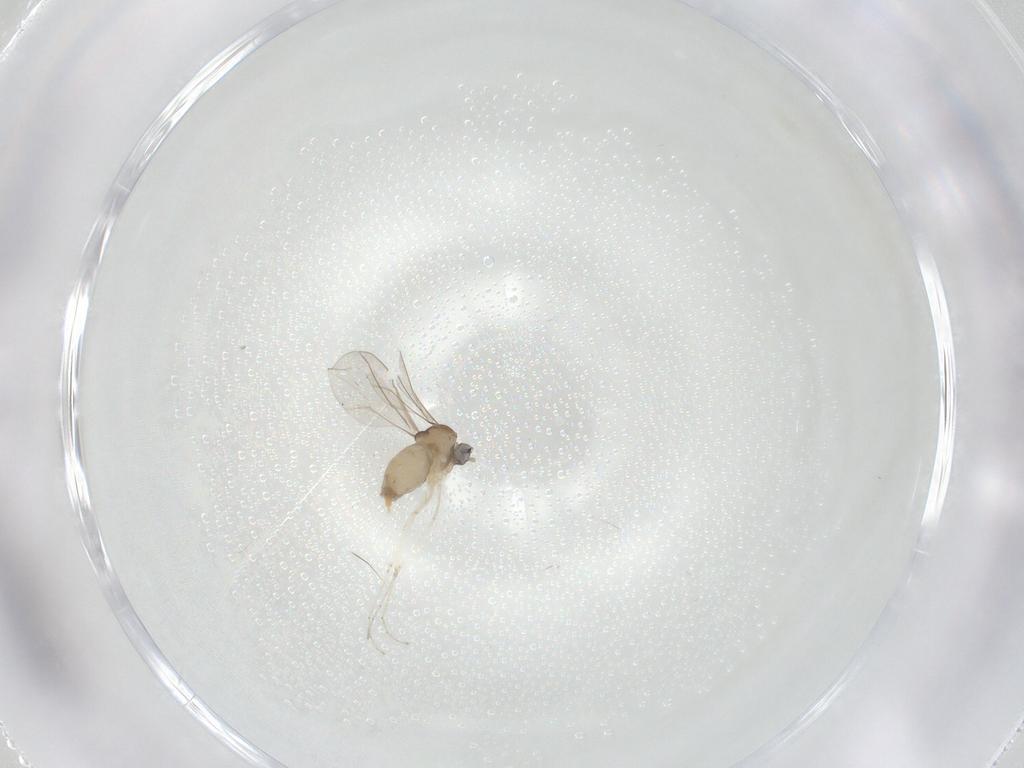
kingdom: Animalia
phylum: Arthropoda
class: Insecta
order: Diptera
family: Cecidomyiidae
